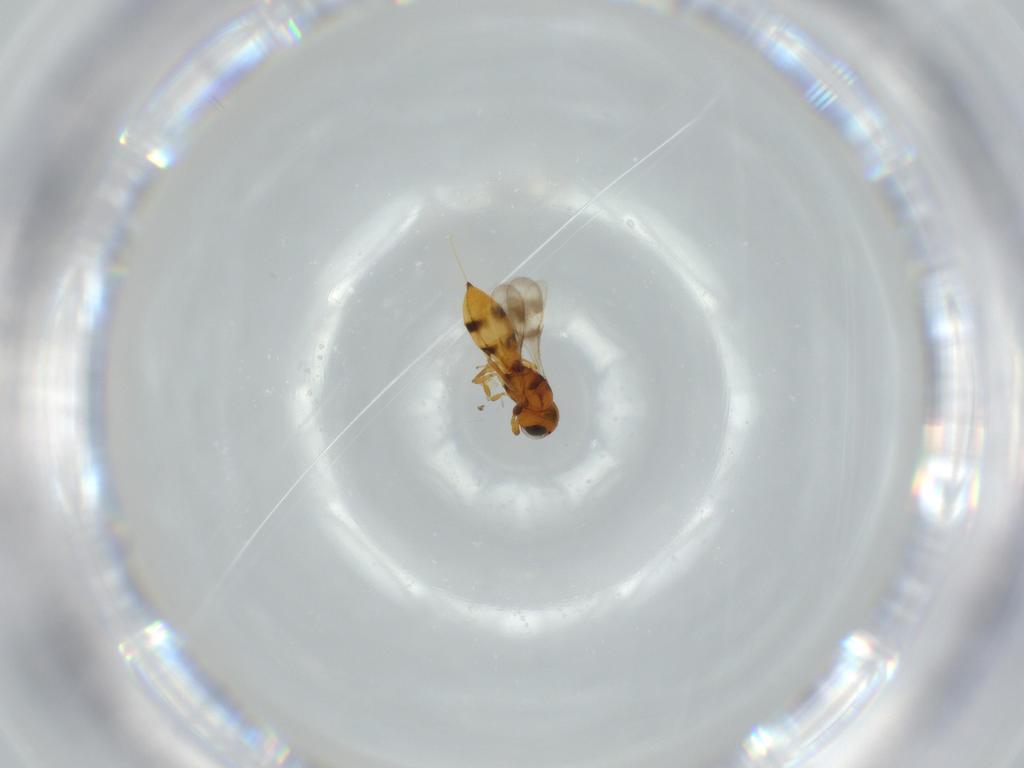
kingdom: Animalia
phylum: Arthropoda
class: Insecta
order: Hymenoptera
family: Scelionidae
